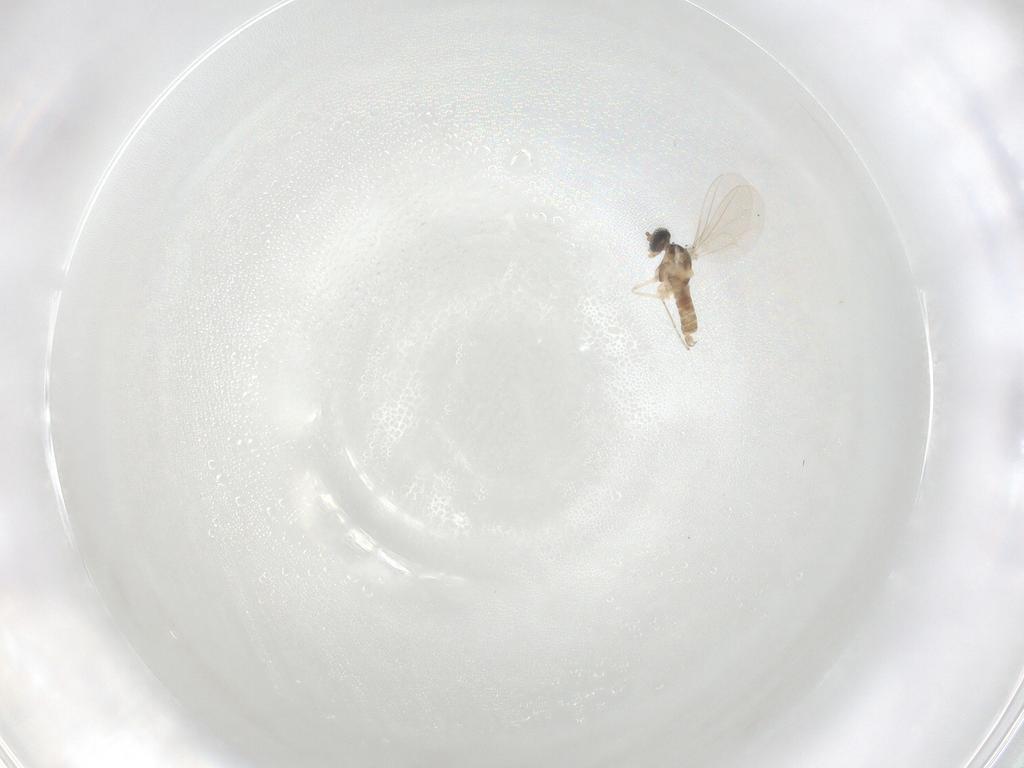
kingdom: Animalia
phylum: Arthropoda
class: Insecta
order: Diptera
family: Cecidomyiidae
